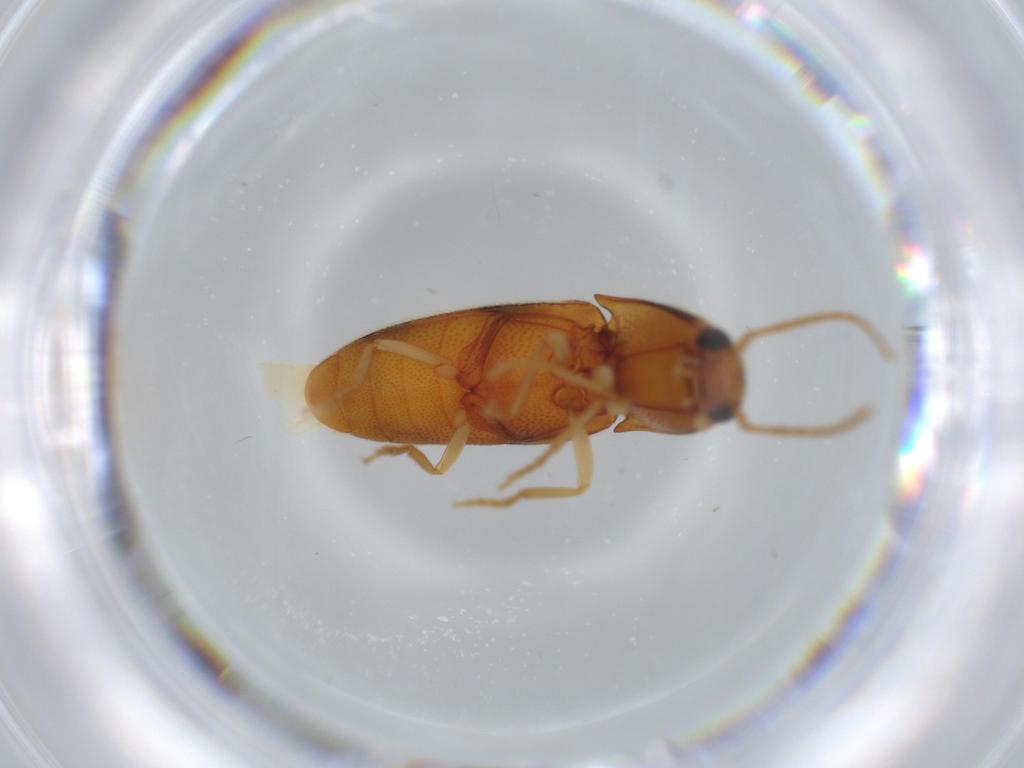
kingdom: Animalia
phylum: Arthropoda
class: Insecta
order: Coleoptera
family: Elateridae
